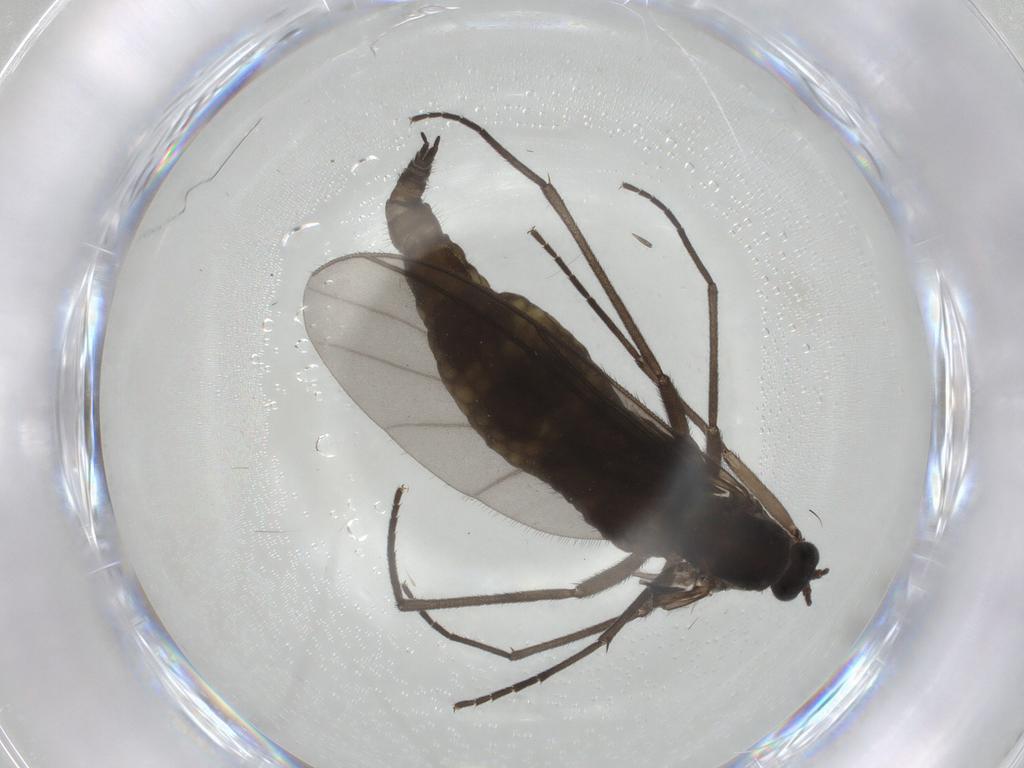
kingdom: Animalia
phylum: Arthropoda
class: Insecta
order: Diptera
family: Sciaridae
